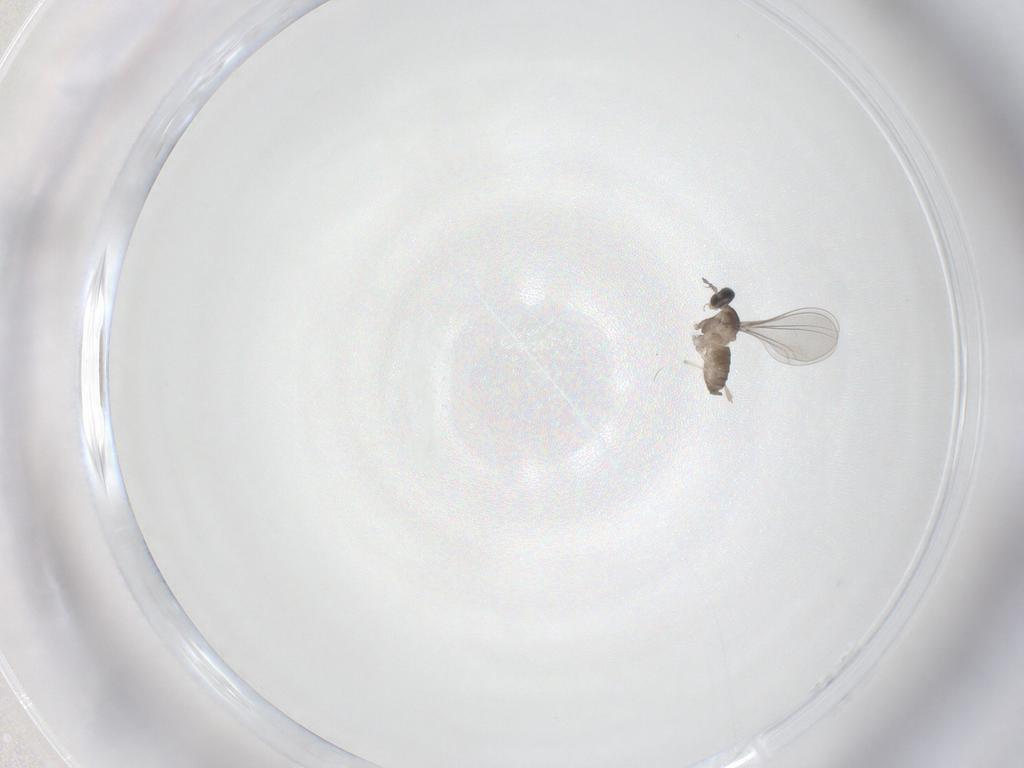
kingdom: Animalia
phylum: Arthropoda
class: Insecta
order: Diptera
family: Cecidomyiidae
